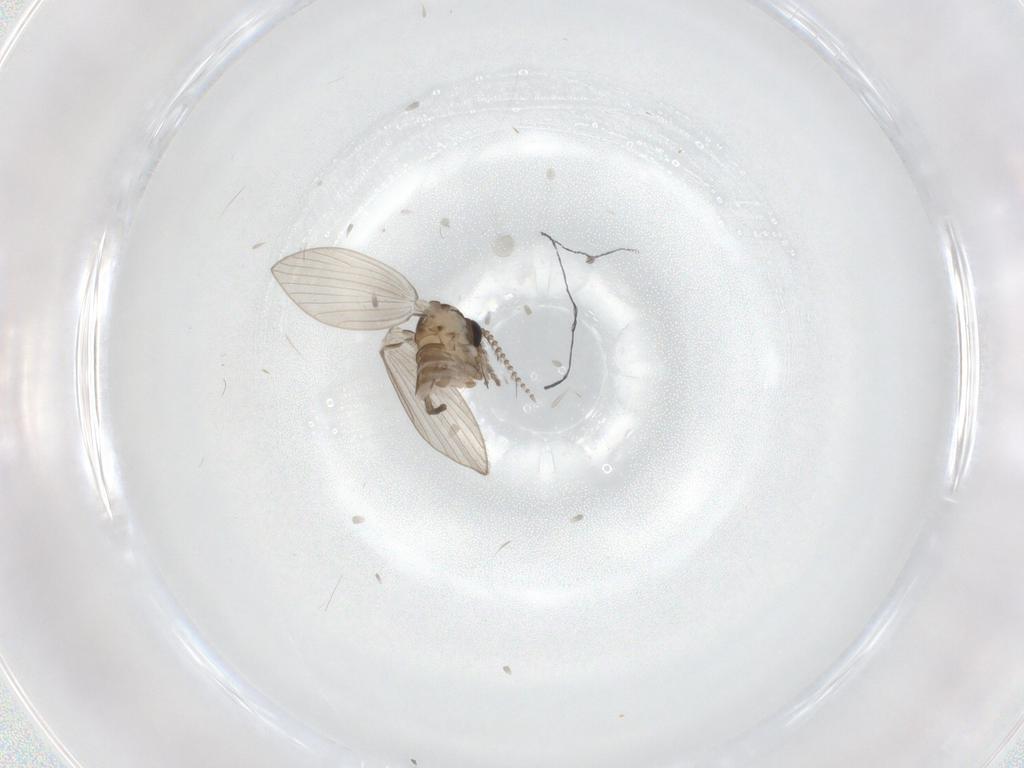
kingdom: Animalia
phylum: Arthropoda
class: Insecta
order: Diptera
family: Psychodidae
